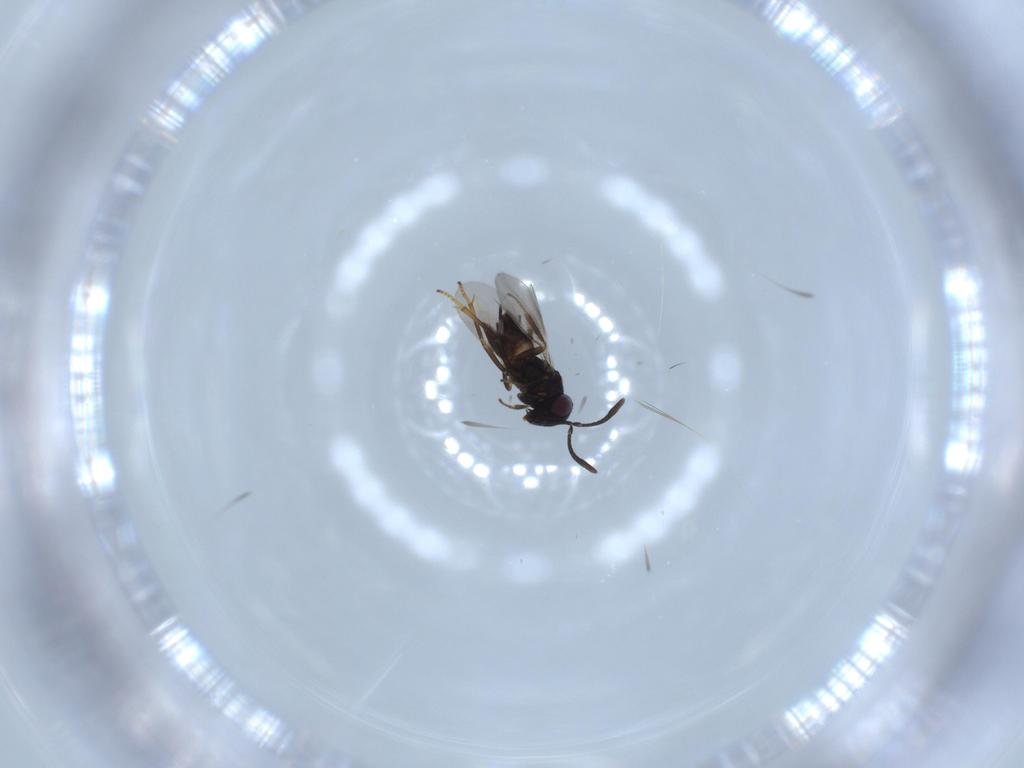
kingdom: Animalia
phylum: Arthropoda
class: Insecta
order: Hymenoptera
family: Encyrtidae
